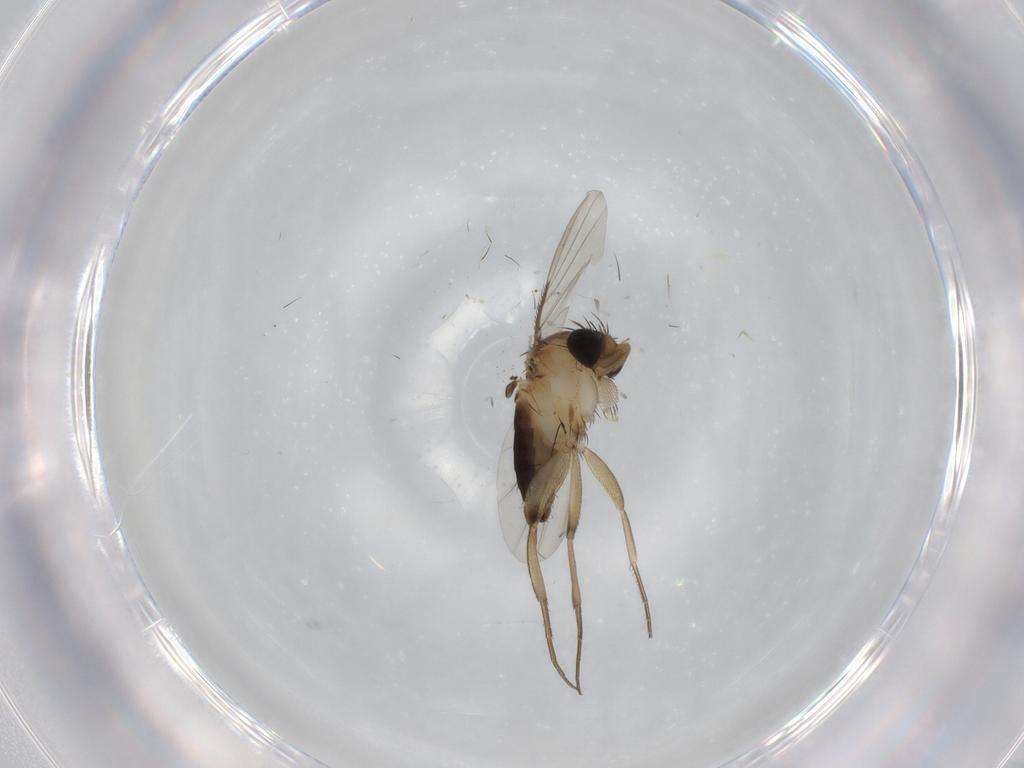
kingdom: Animalia
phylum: Arthropoda
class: Insecta
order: Diptera
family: Phoridae
